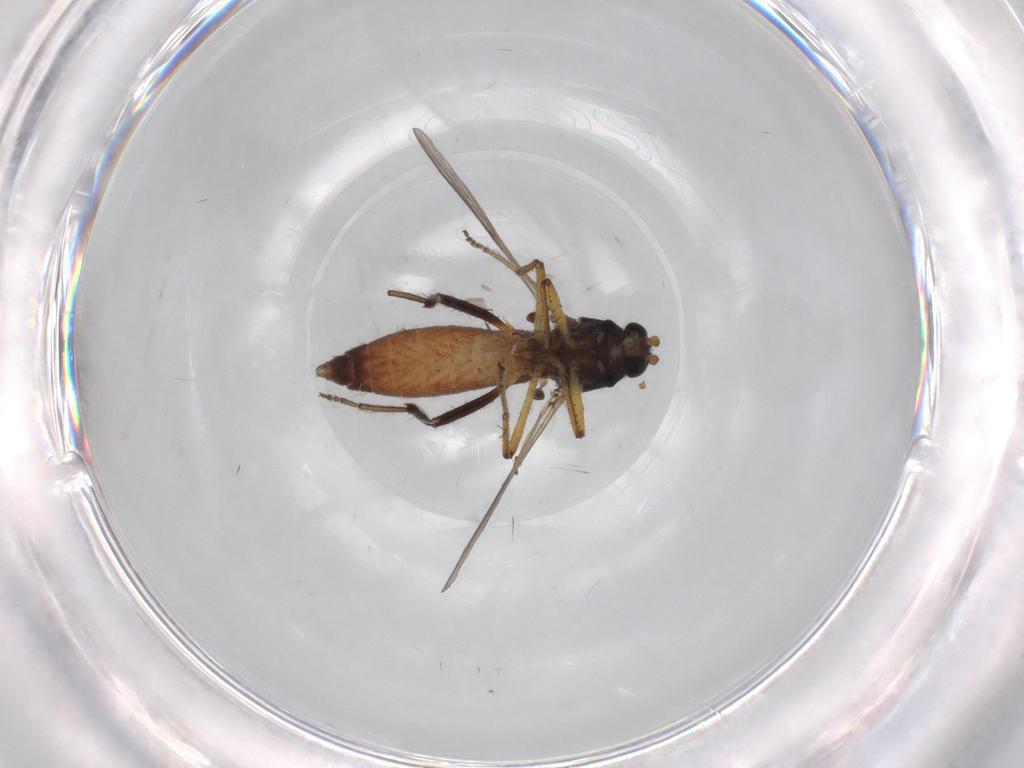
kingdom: Animalia
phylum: Arthropoda
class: Insecta
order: Diptera
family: Ceratopogonidae
